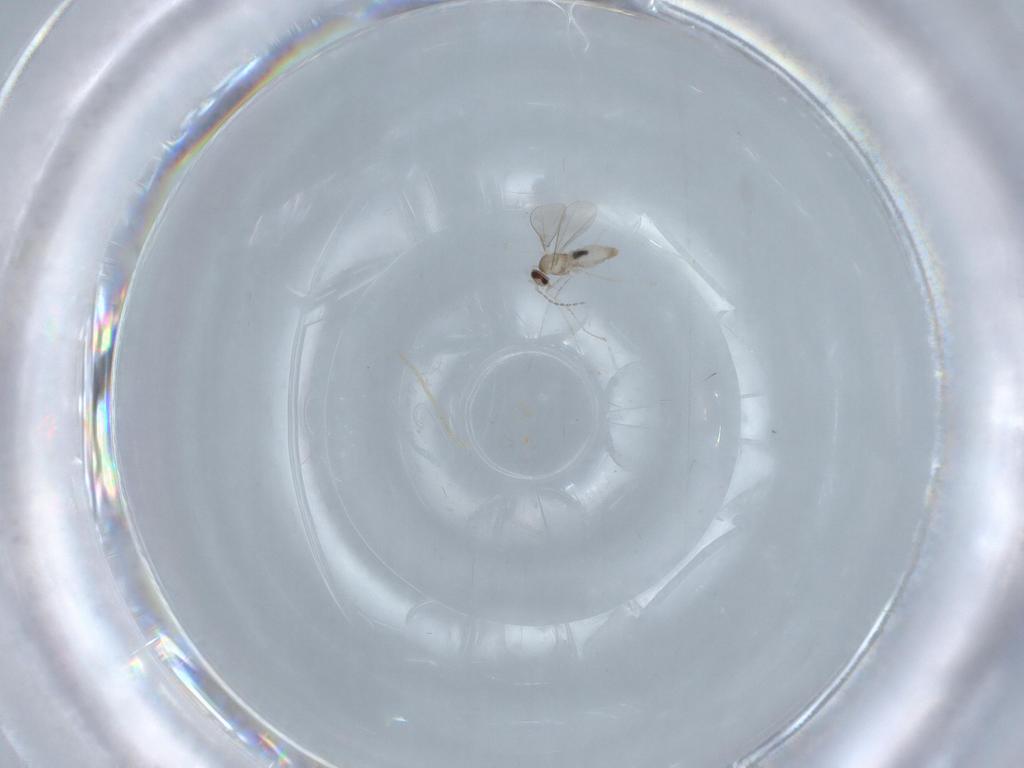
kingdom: Animalia
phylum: Arthropoda
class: Insecta
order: Diptera
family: Cecidomyiidae
